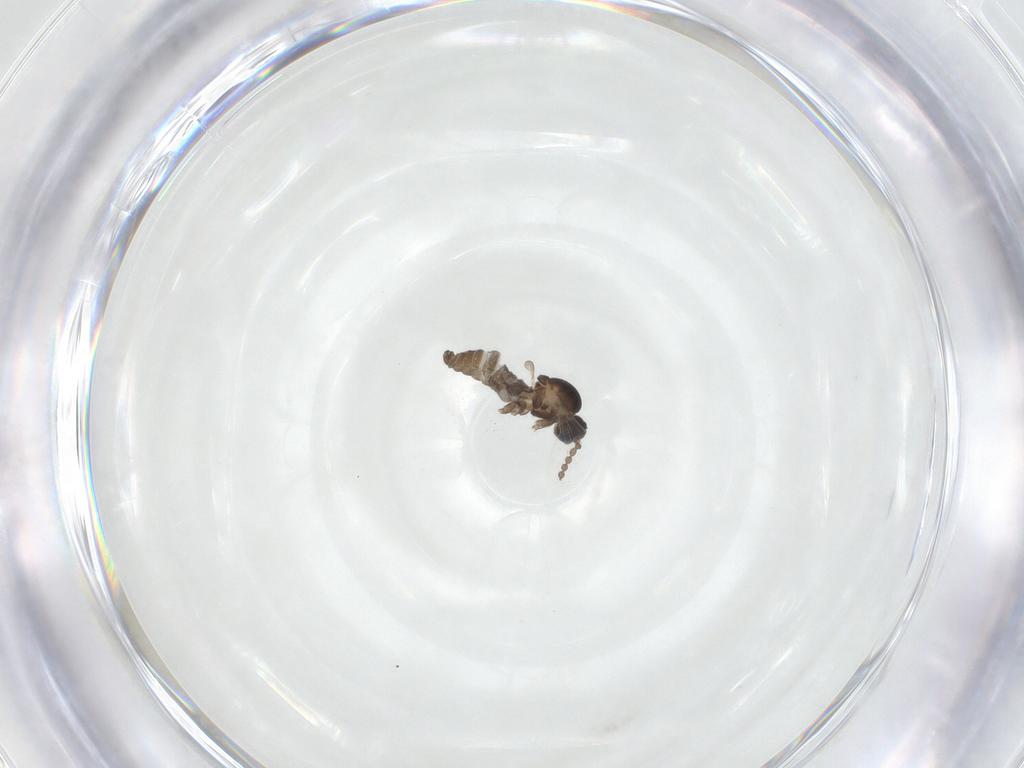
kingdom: Animalia
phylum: Arthropoda
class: Insecta
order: Diptera
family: Cecidomyiidae
